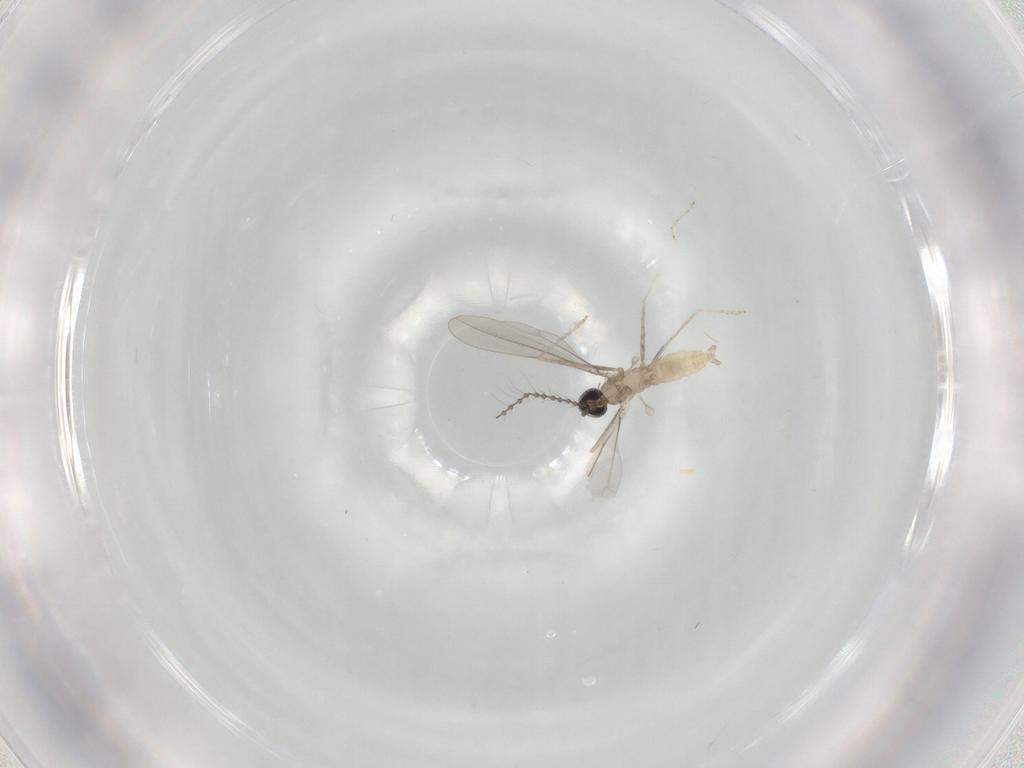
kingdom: Animalia
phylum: Arthropoda
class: Insecta
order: Diptera
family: Cecidomyiidae
